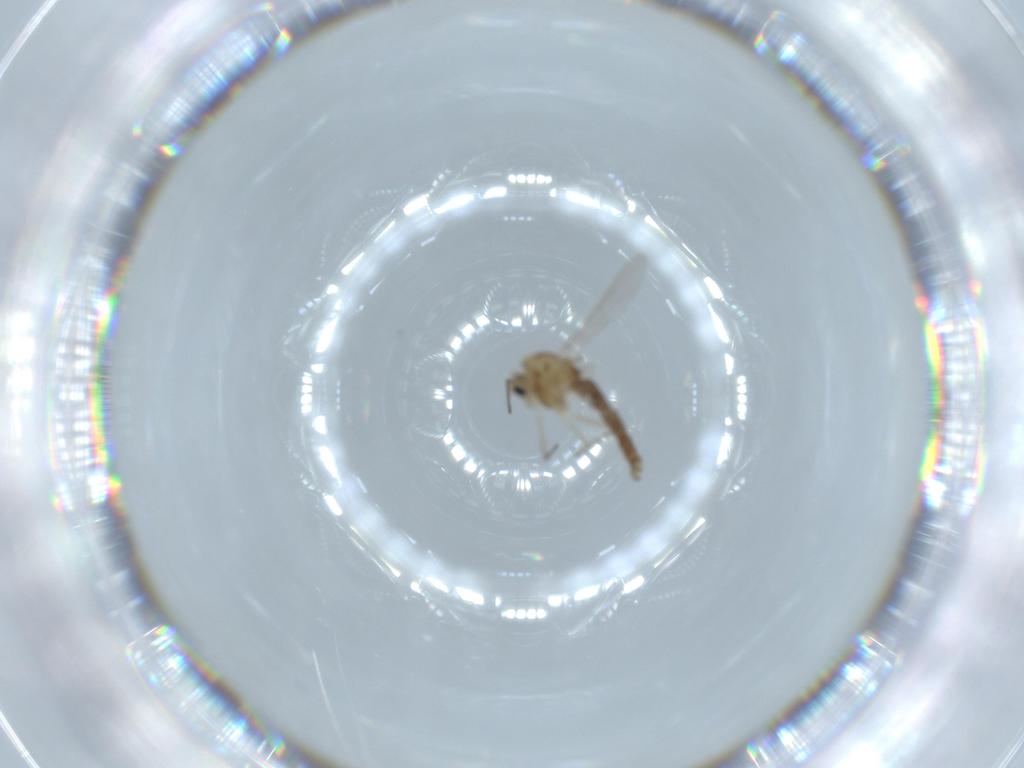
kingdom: Animalia
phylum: Arthropoda
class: Insecta
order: Diptera
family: Chironomidae
